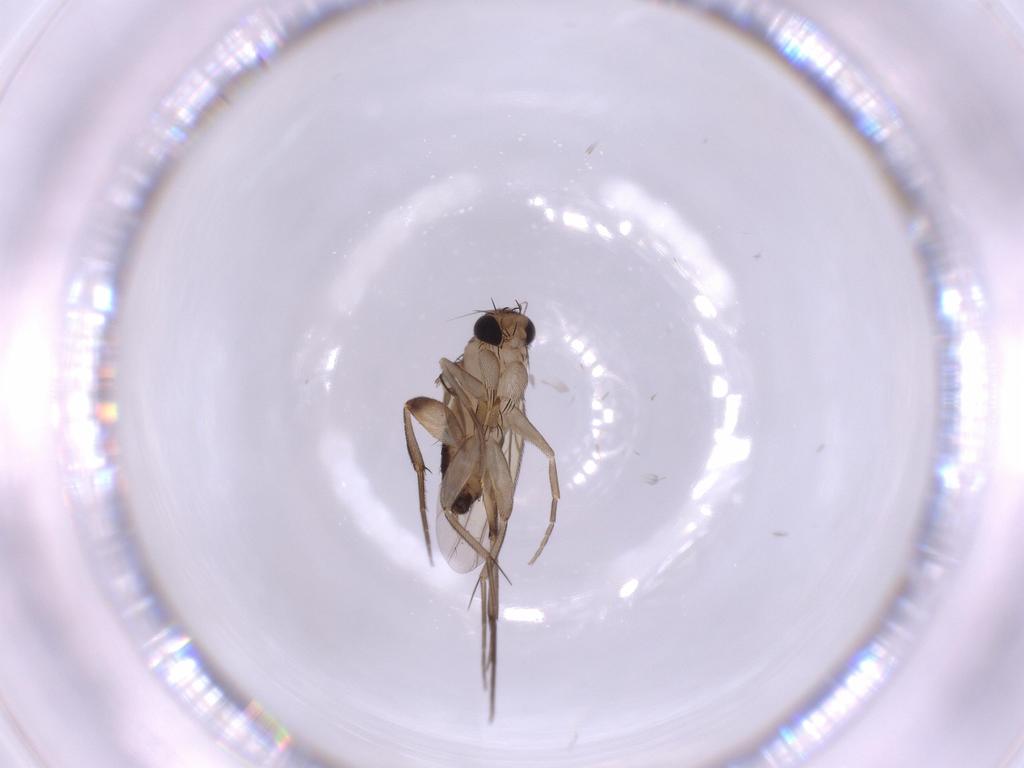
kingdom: Animalia
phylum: Arthropoda
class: Insecta
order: Diptera
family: Phoridae
